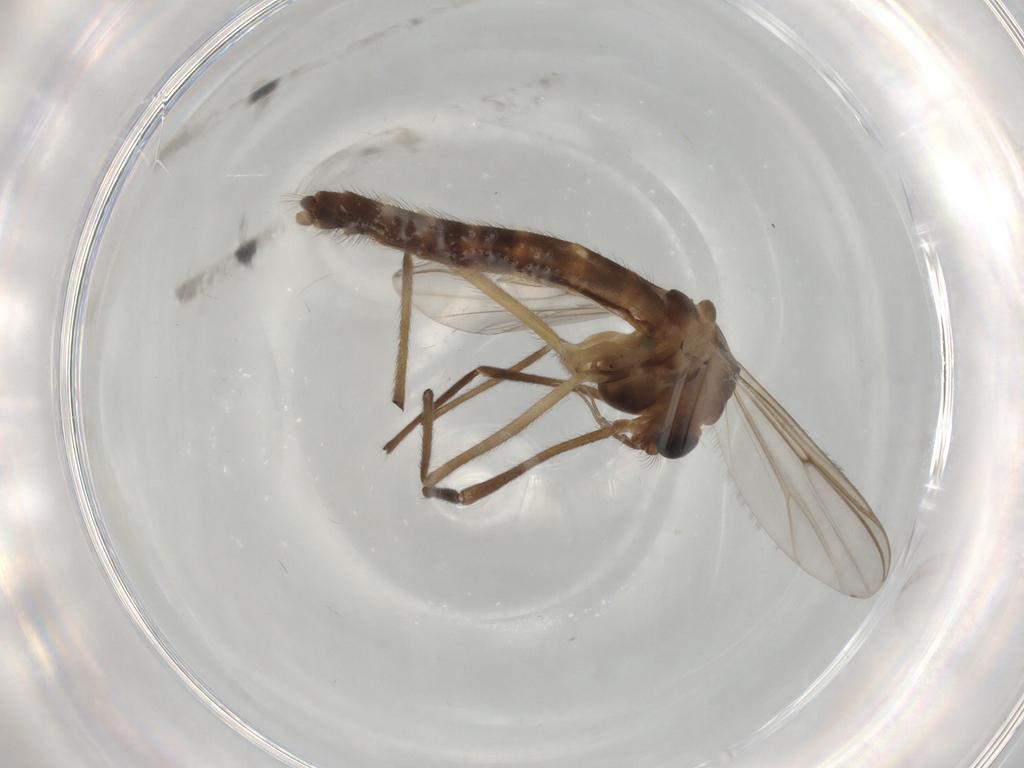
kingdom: Animalia
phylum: Arthropoda
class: Insecta
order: Diptera
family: Chironomidae
